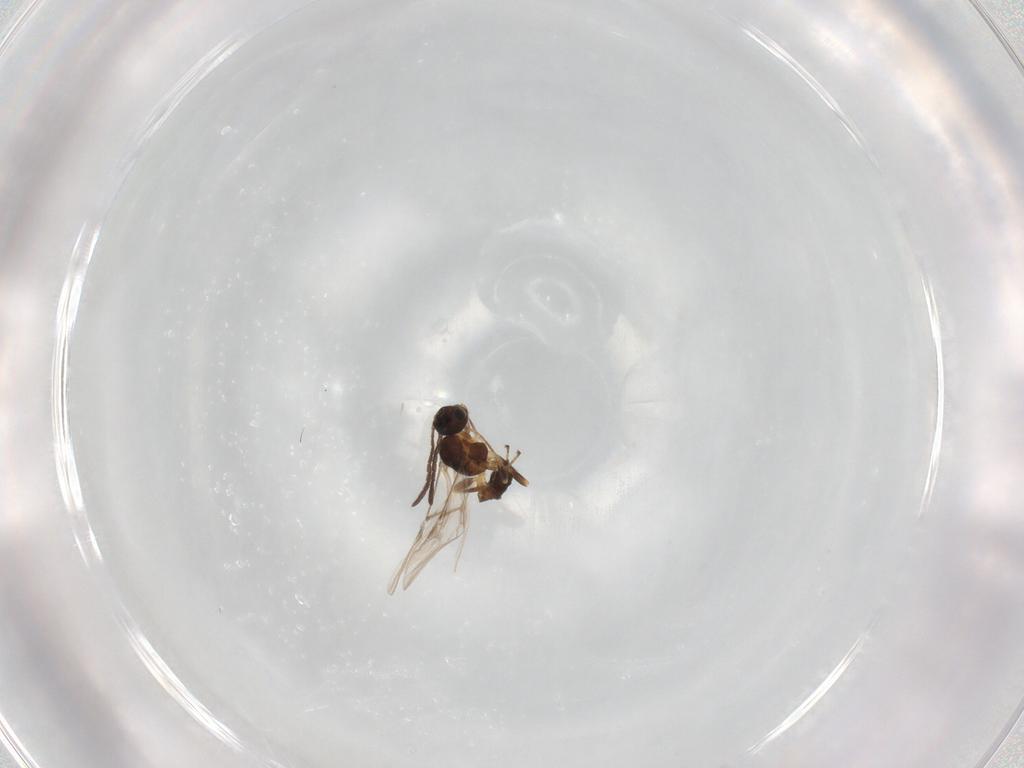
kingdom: Animalia
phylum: Arthropoda
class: Insecta
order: Hymenoptera
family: Braconidae
